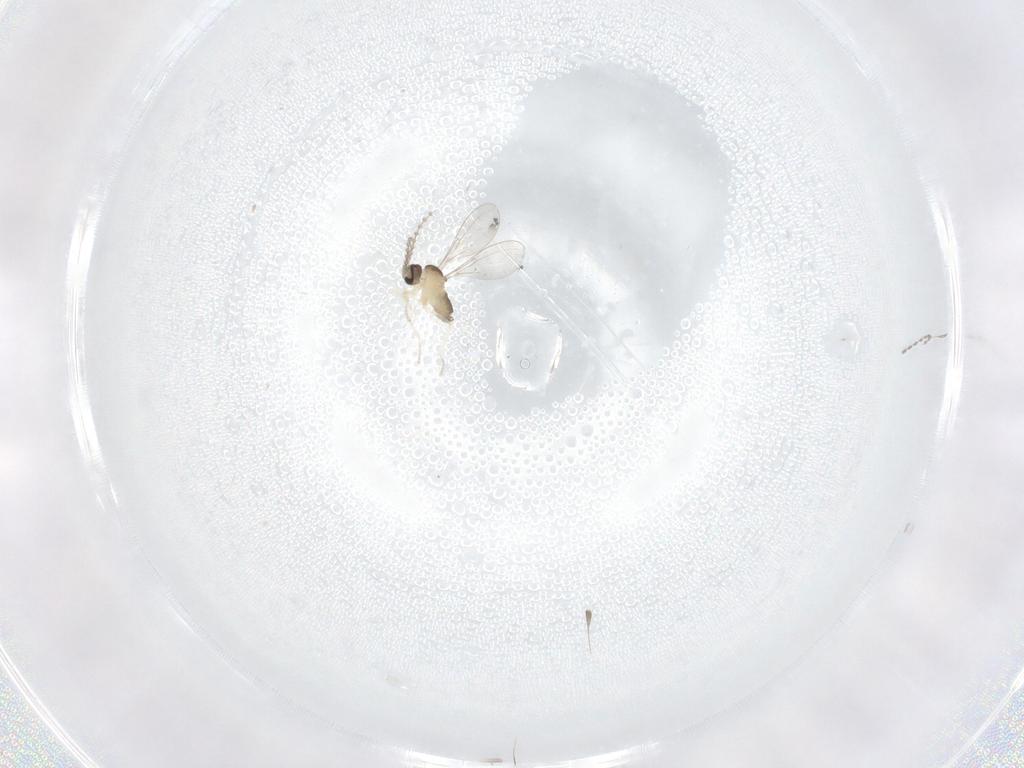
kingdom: Animalia
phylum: Arthropoda
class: Insecta
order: Diptera
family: Cecidomyiidae
